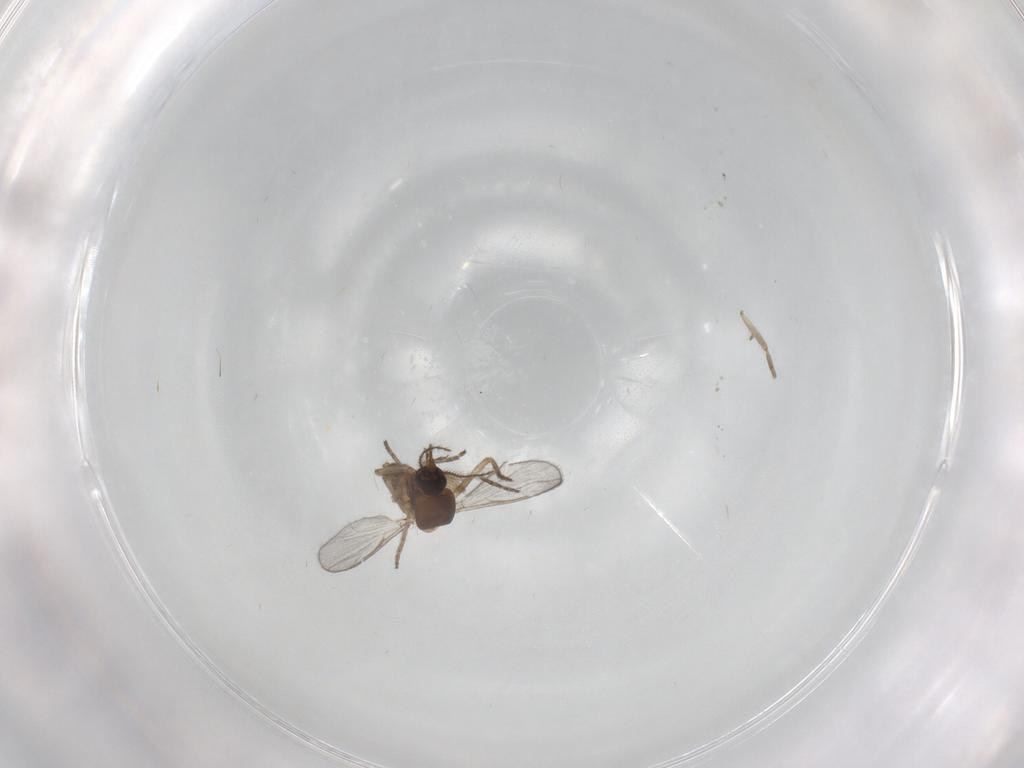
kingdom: Animalia
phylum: Arthropoda
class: Insecta
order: Diptera
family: Ceratopogonidae
